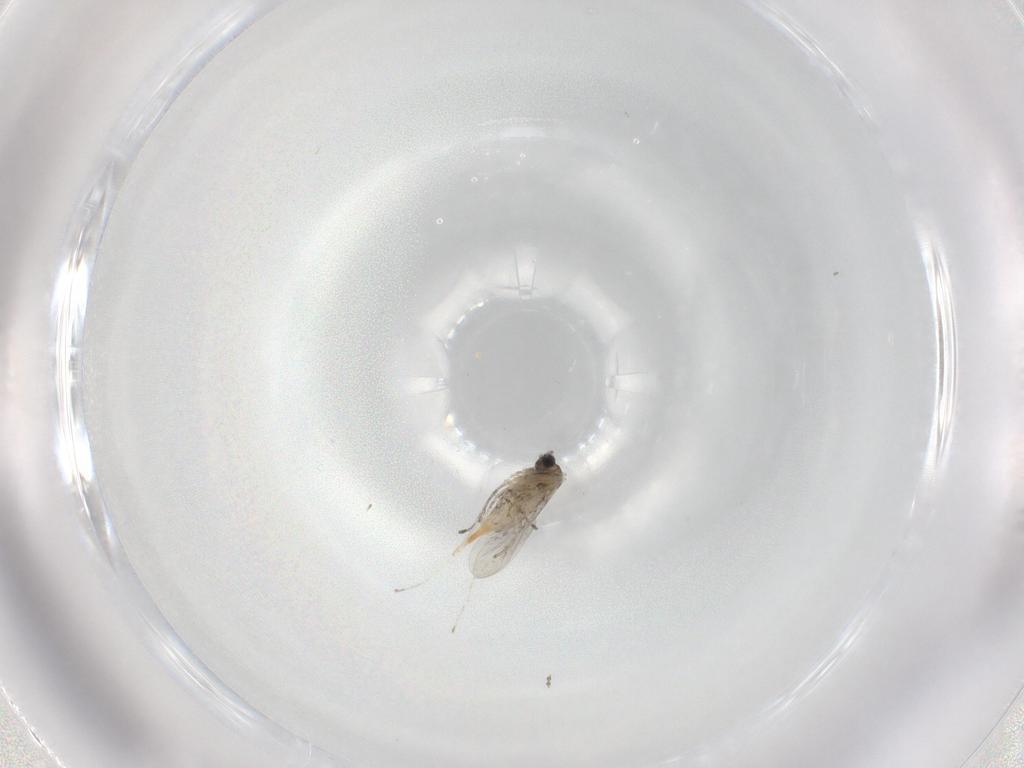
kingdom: Animalia
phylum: Arthropoda
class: Insecta
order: Diptera
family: Cecidomyiidae
